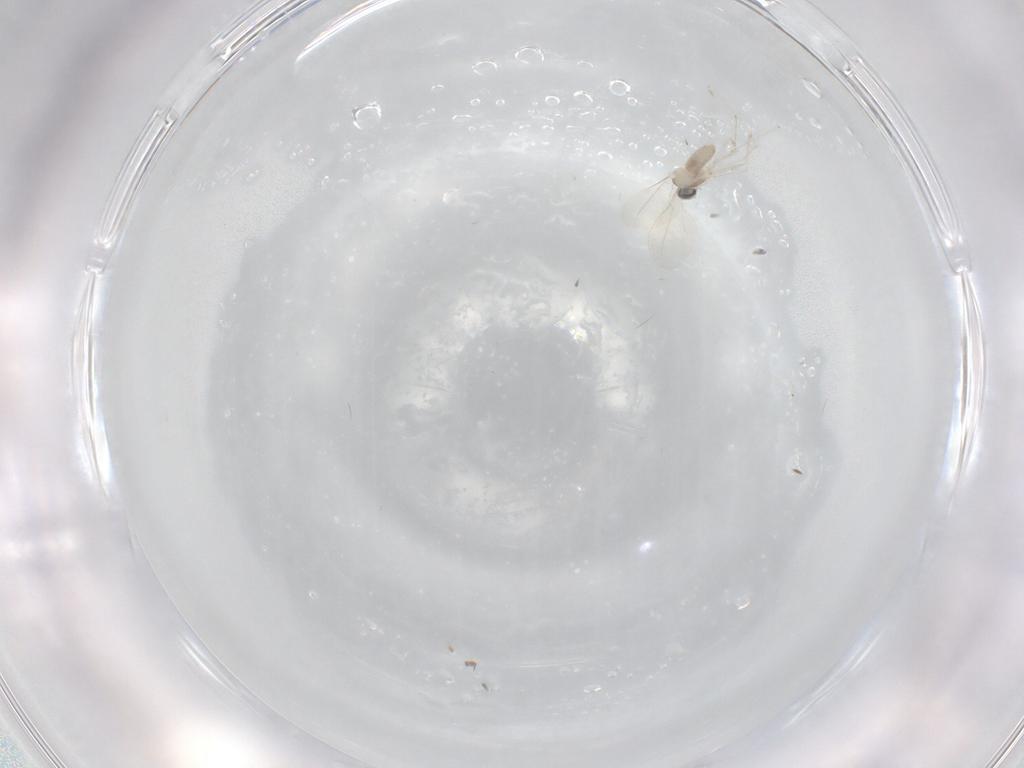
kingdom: Animalia
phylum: Arthropoda
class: Insecta
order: Diptera
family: Cecidomyiidae
